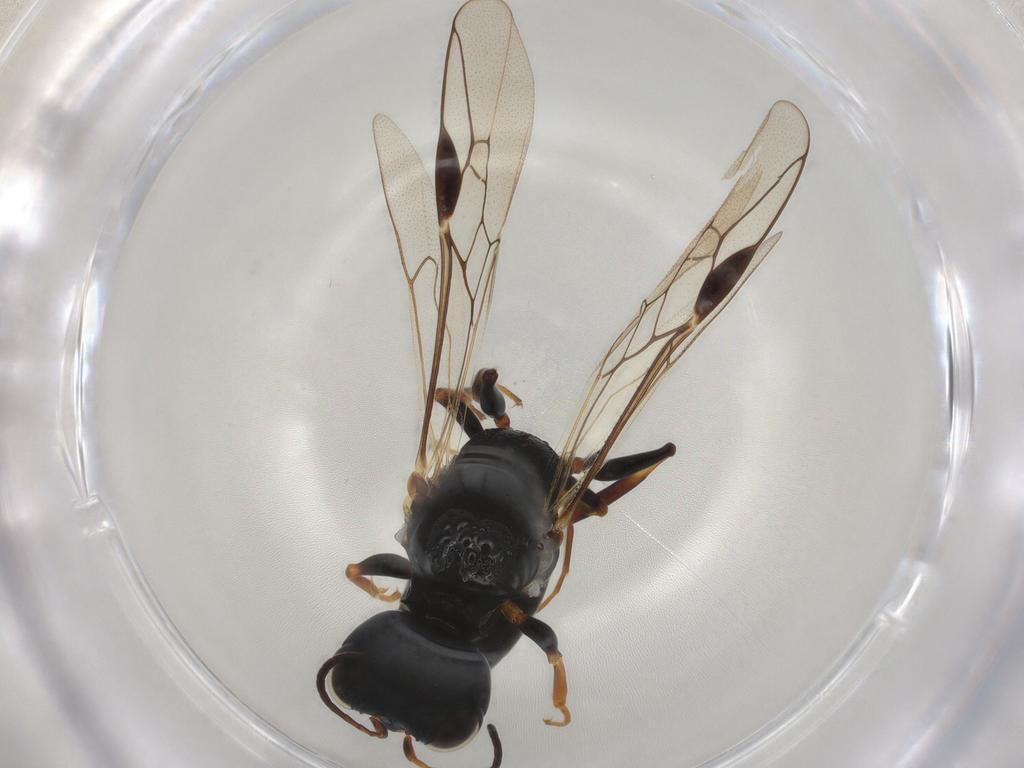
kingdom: Animalia
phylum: Arthropoda
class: Insecta
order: Hymenoptera
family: Pemphredonidae
